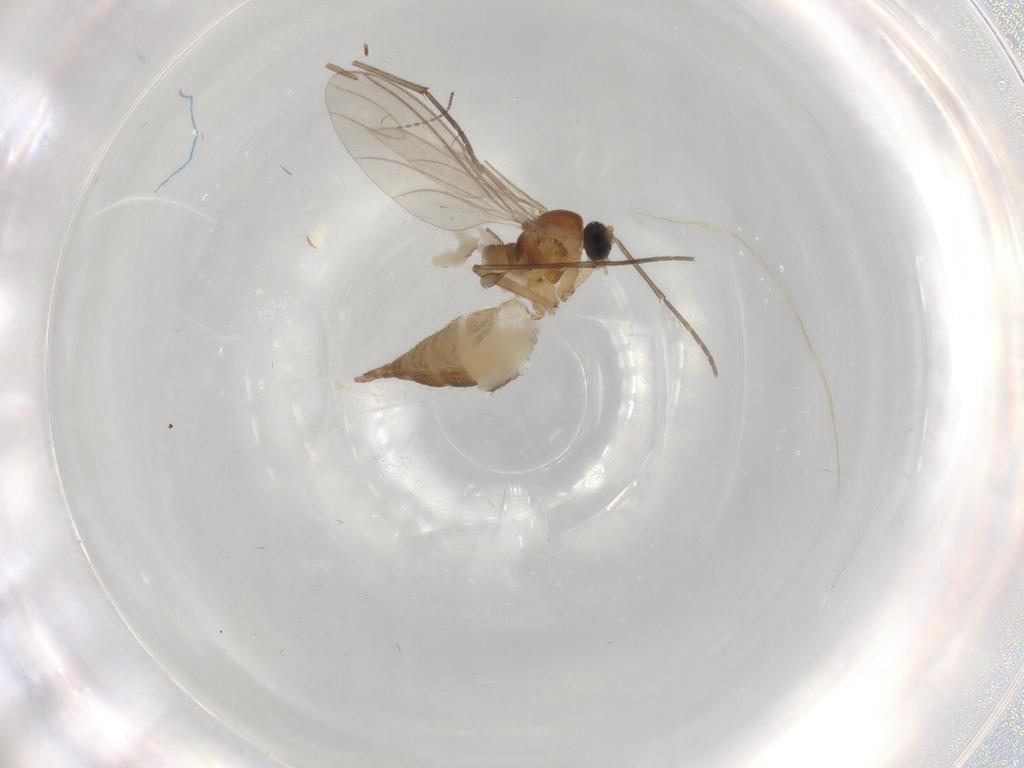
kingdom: Animalia
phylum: Arthropoda
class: Insecta
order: Diptera
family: Sciaridae
